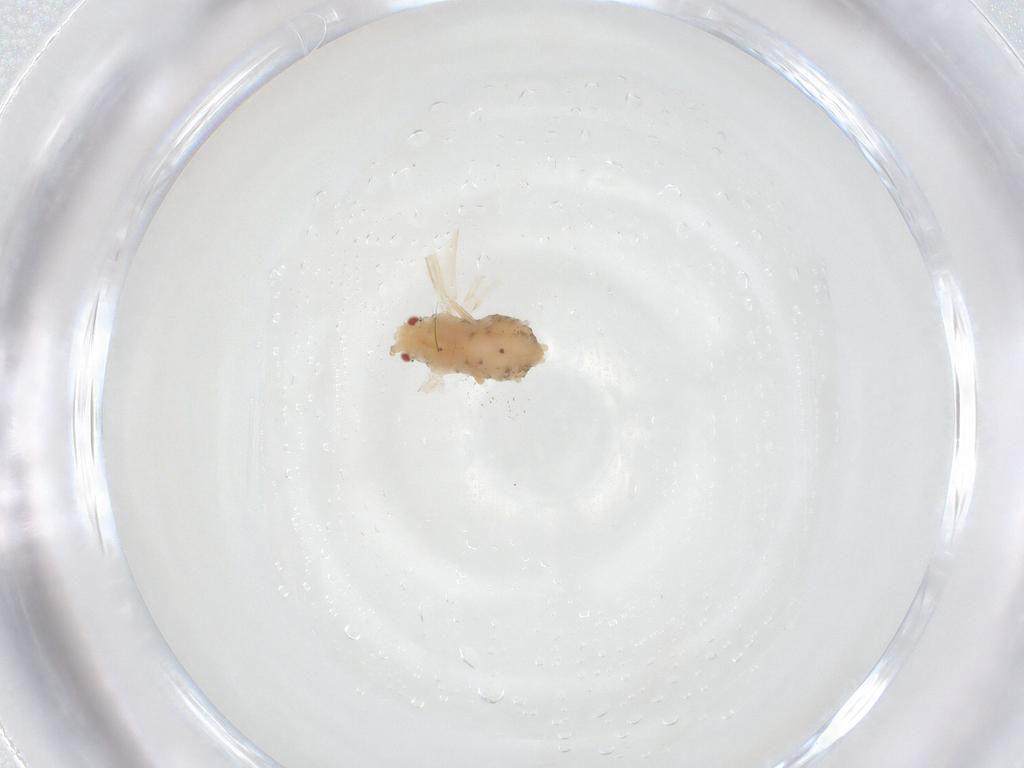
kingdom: Animalia
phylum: Arthropoda
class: Insecta
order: Hemiptera
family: Aphididae
